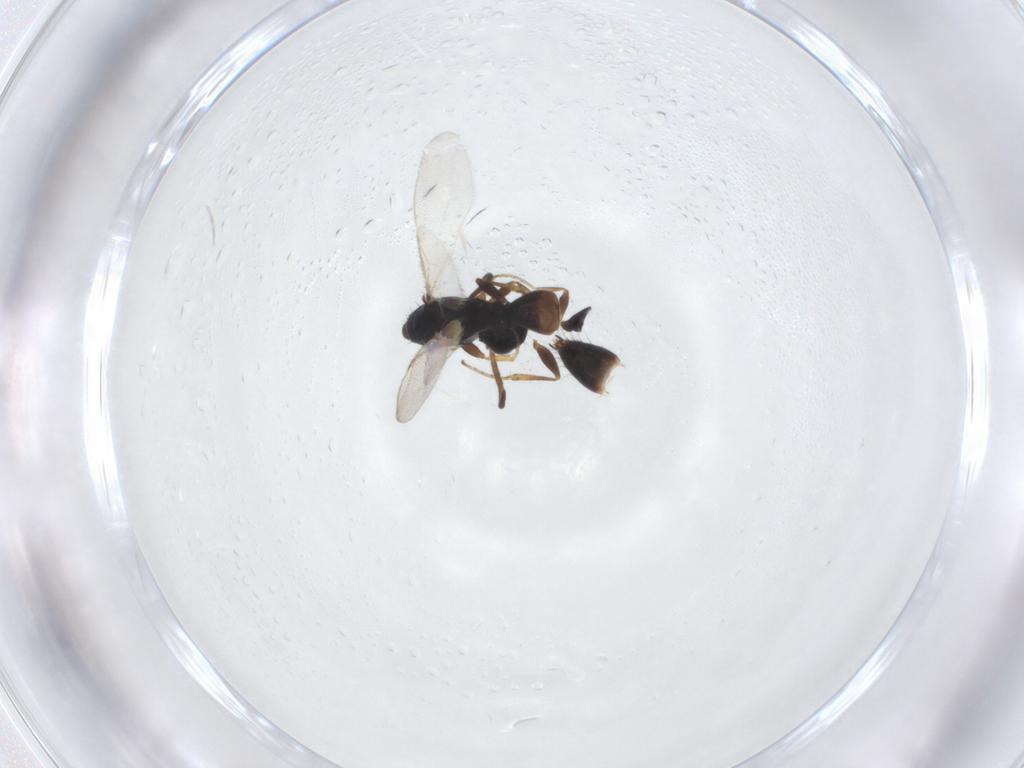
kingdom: Animalia
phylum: Arthropoda
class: Insecta
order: Hymenoptera
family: Bethylidae
